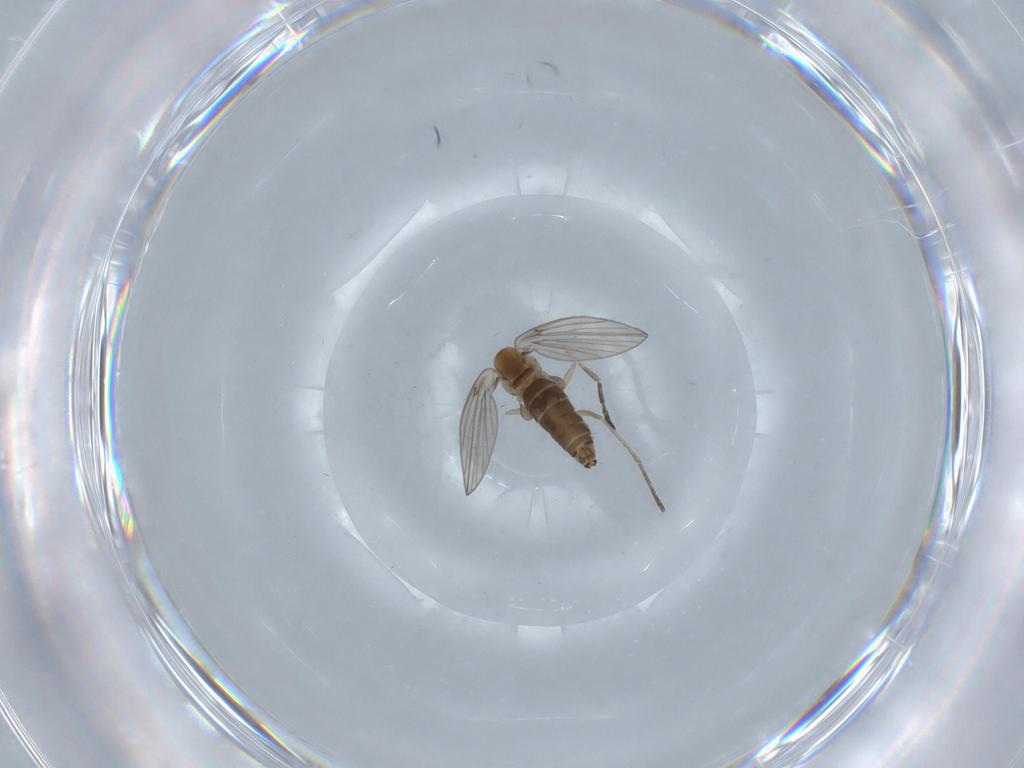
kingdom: Animalia
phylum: Arthropoda
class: Insecta
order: Diptera
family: Psychodidae
